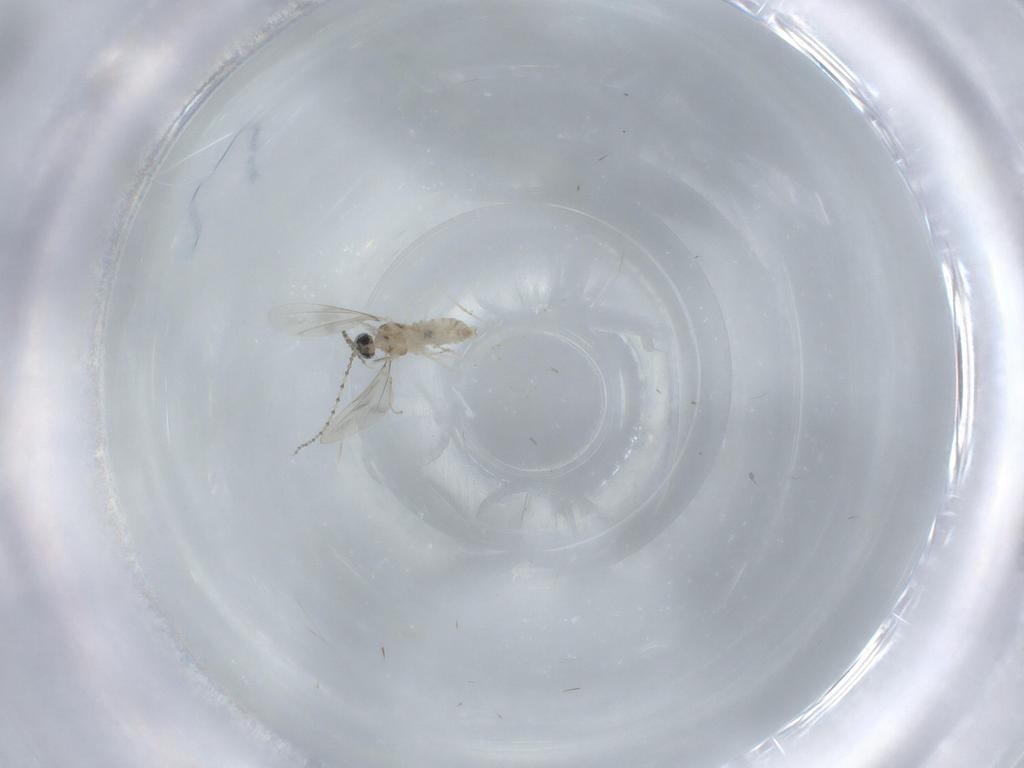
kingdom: Animalia
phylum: Arthropoda
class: Insecta
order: Diptera
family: Cecidomyiidae
